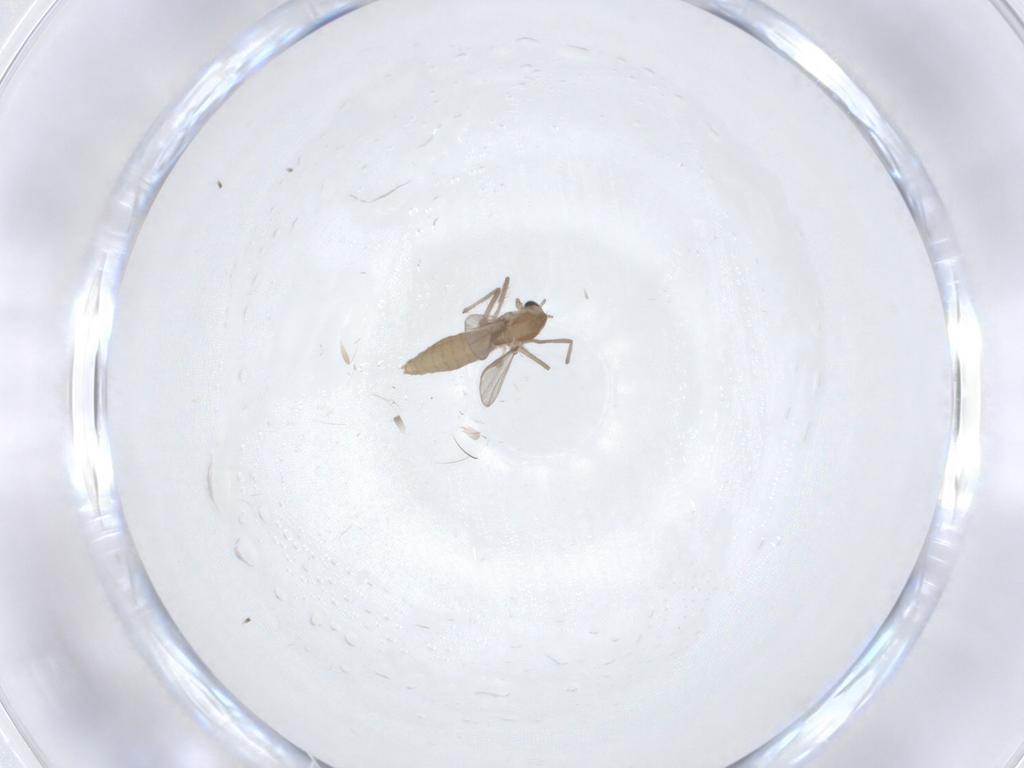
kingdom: Animalia
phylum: Arthropoda
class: Insecta
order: Diptera
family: Chironomidae
